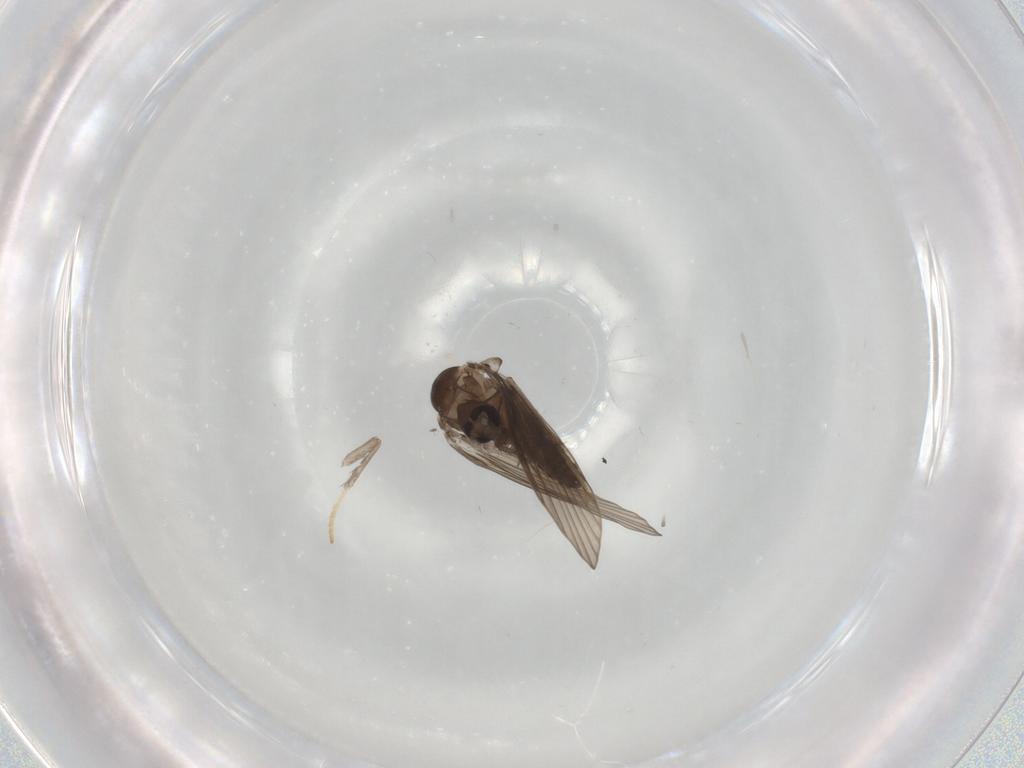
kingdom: Animalia
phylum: Arthropoda
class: Insecta
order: Diptera
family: Psychodidae
